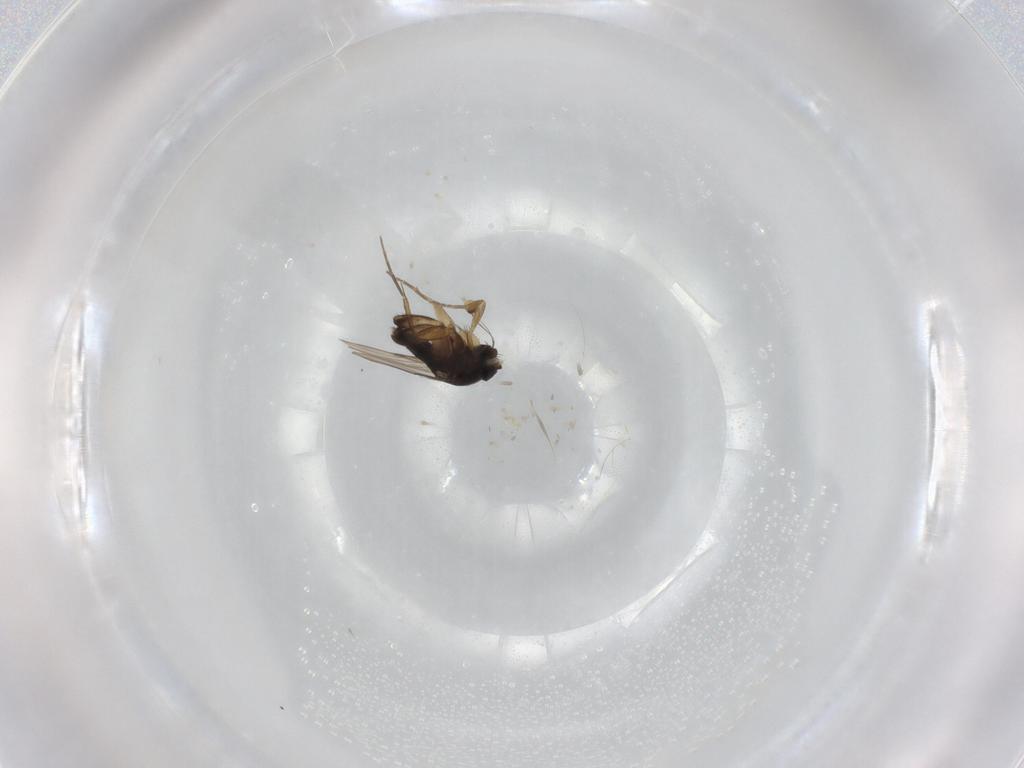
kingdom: Animalia
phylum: Arthropoda
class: Insecta
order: Diptera
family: Phoridae
